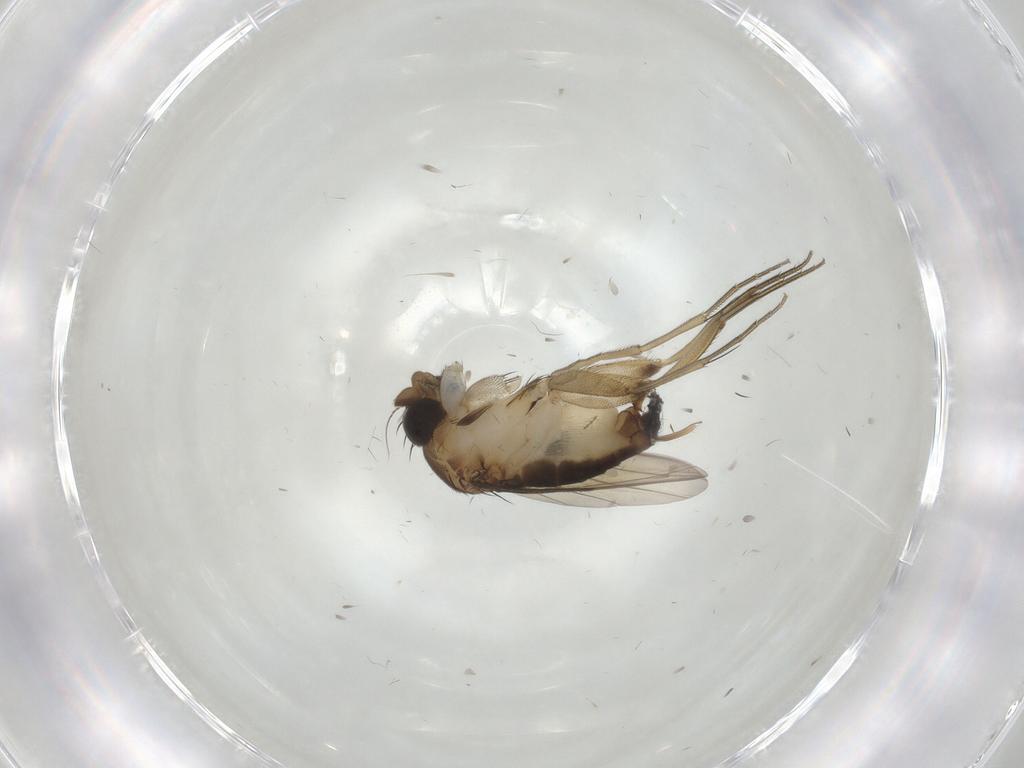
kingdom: Animalia
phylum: Arthropoda
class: Insecta
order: Diptera
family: Phoridae
